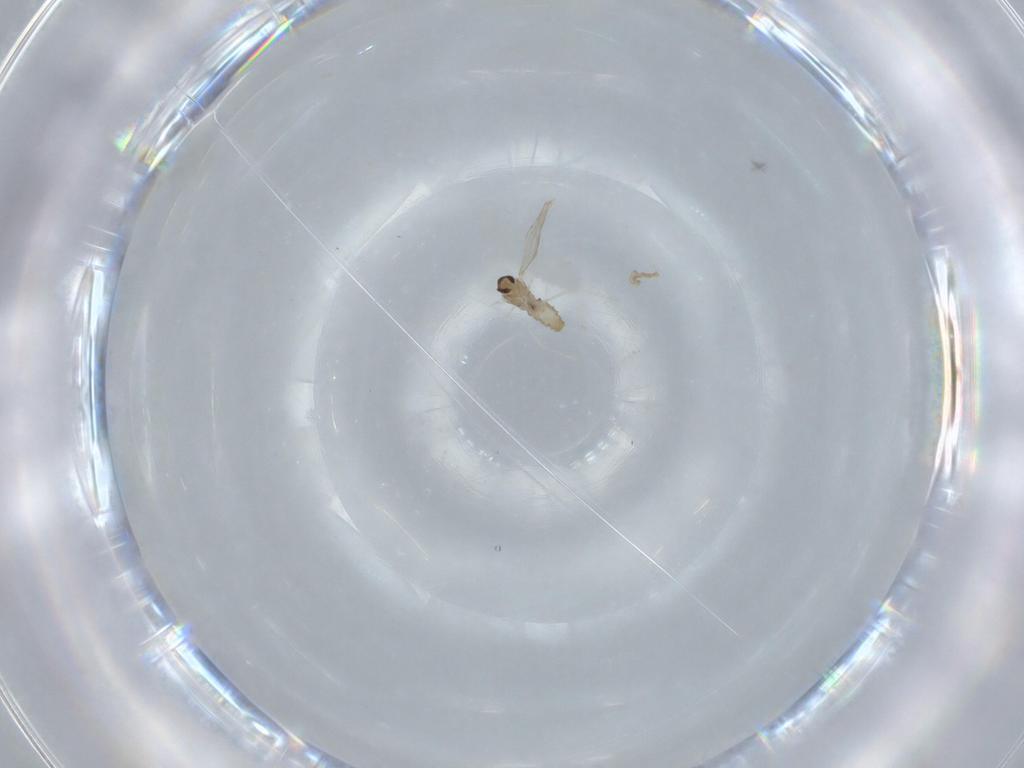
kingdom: Animalia
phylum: Arthropoda
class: Insecta
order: Diptera
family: Cecidomyiidae
